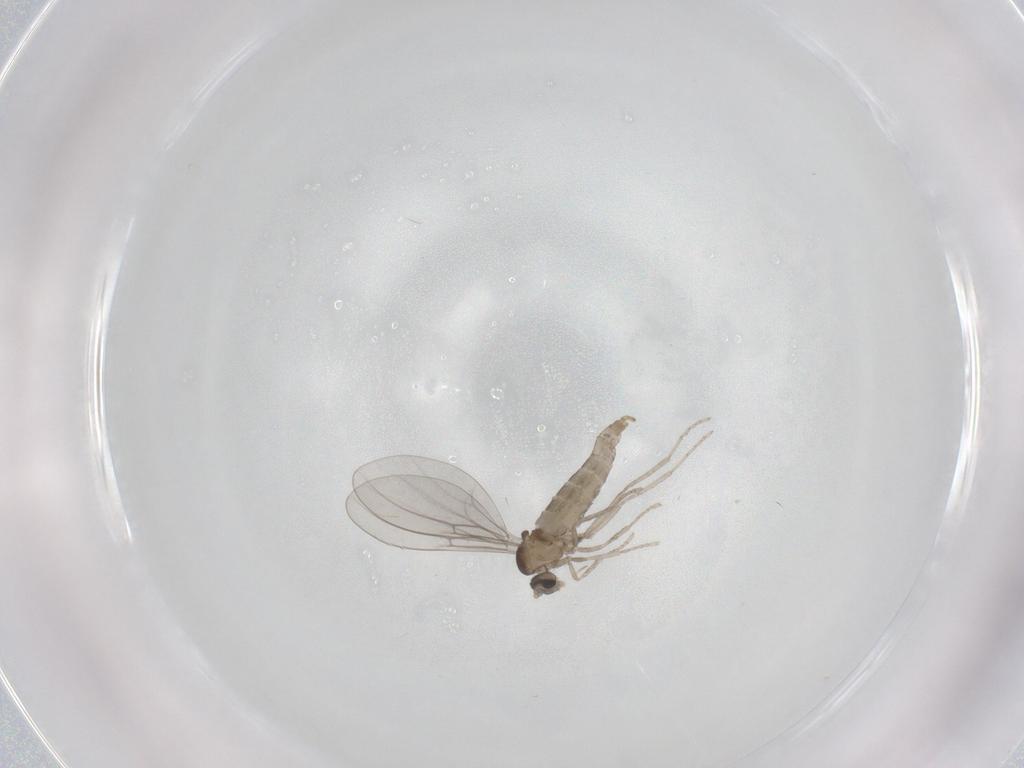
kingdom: Animalia
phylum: Arthropoda
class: Insecta
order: Diptera
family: Cecidomyiidae
